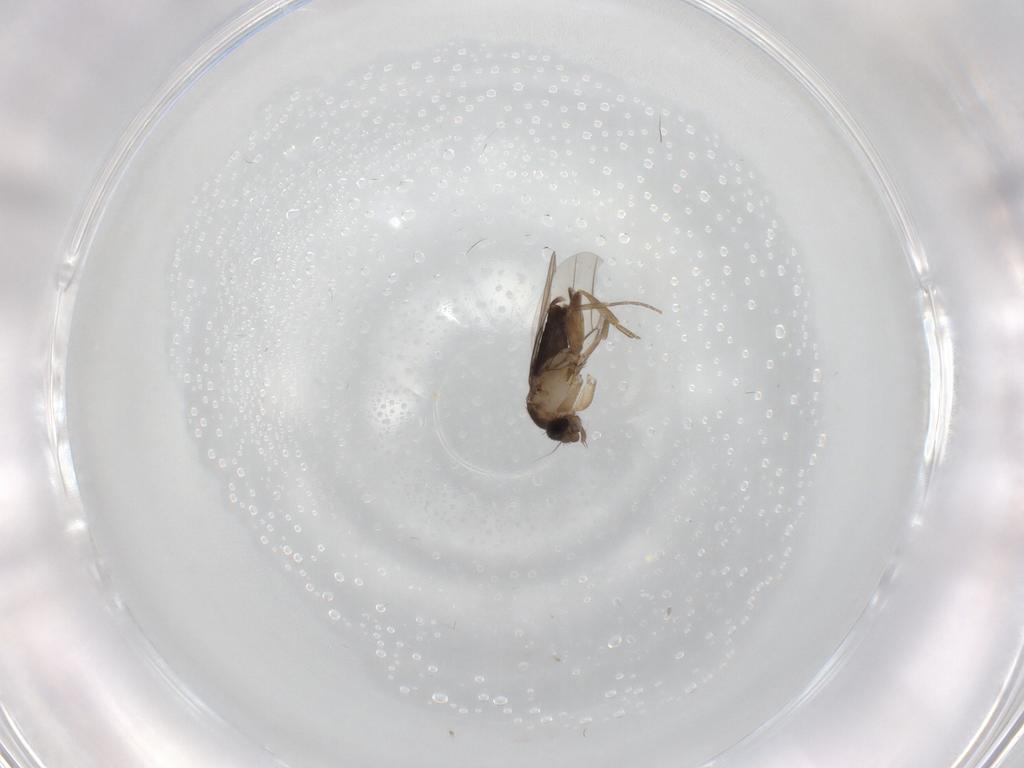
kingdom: Animalia
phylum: Arthropoda
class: Insecta
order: Diptera
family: Phoridae
